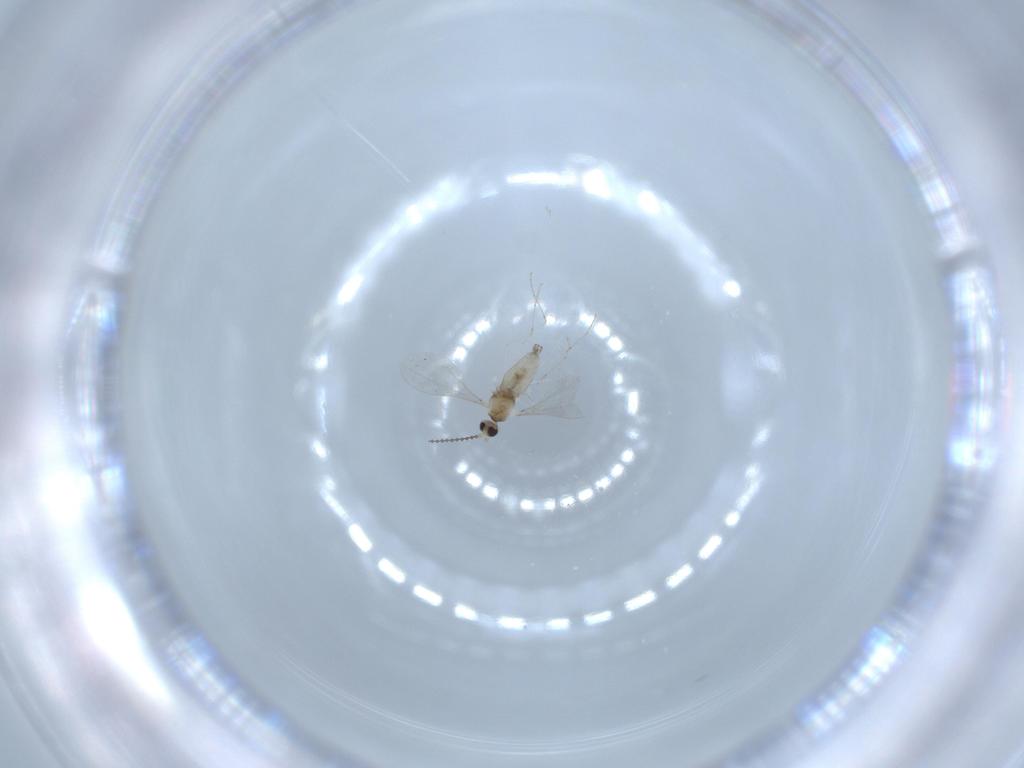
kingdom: Animalia
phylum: Arthropoda
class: Insecta
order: Diptera
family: Cecidomyiidae
